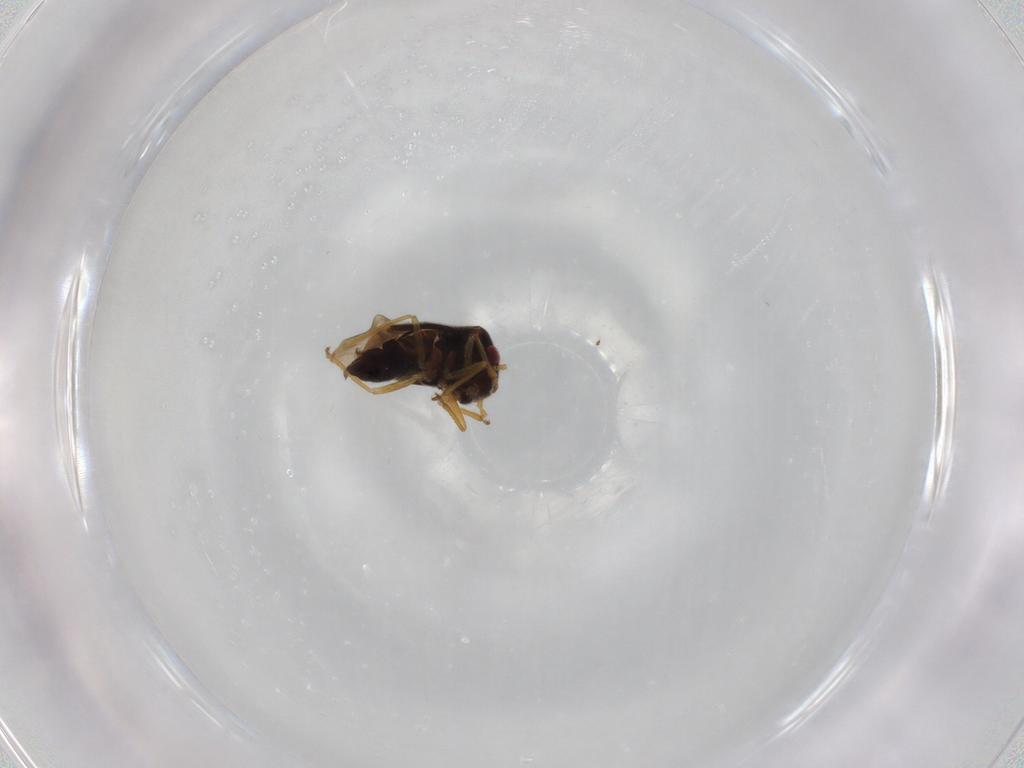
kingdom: Animalia
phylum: Arthropoda
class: Insecta
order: Hemiptera
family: Schizopteridae
